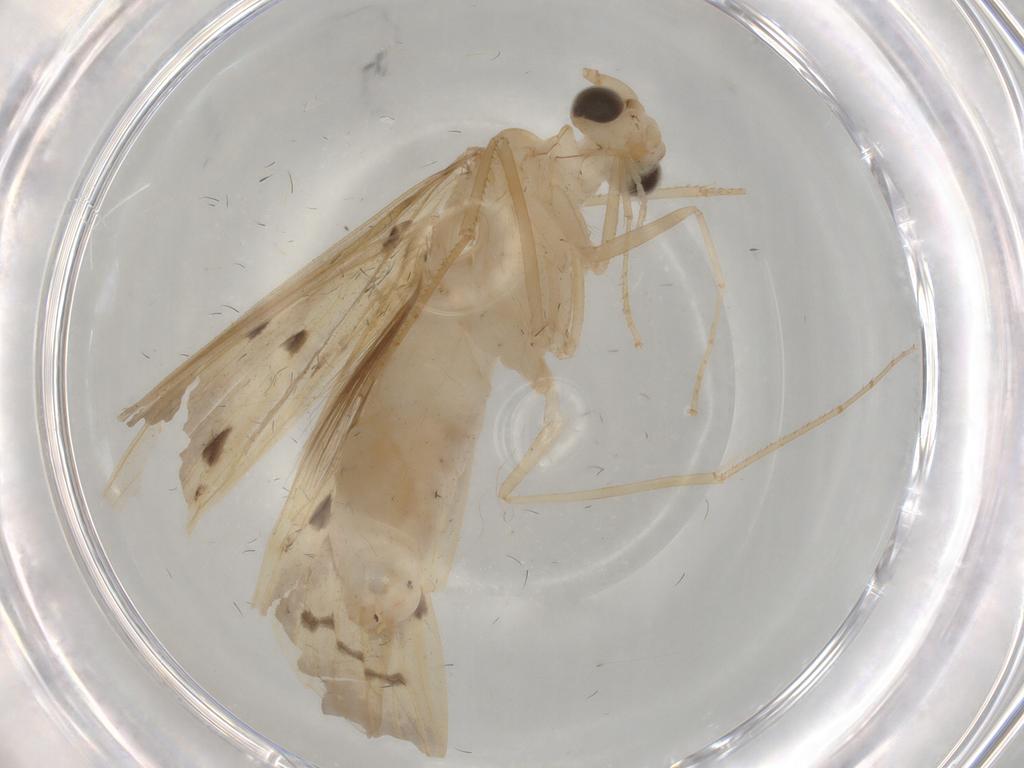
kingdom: Animalia
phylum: Arthropoda
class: Insecta
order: Trichoptera
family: Leptoceridae
